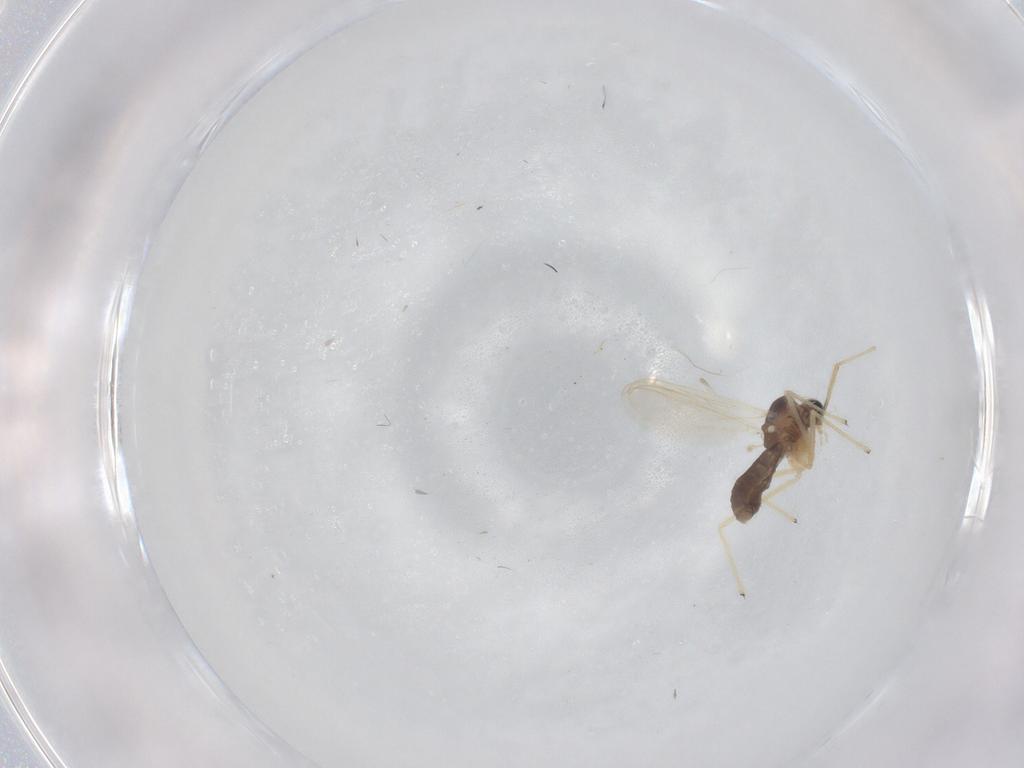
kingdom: Animalia
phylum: Arthropoda
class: Insecta
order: Diptera
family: Chironomidae
